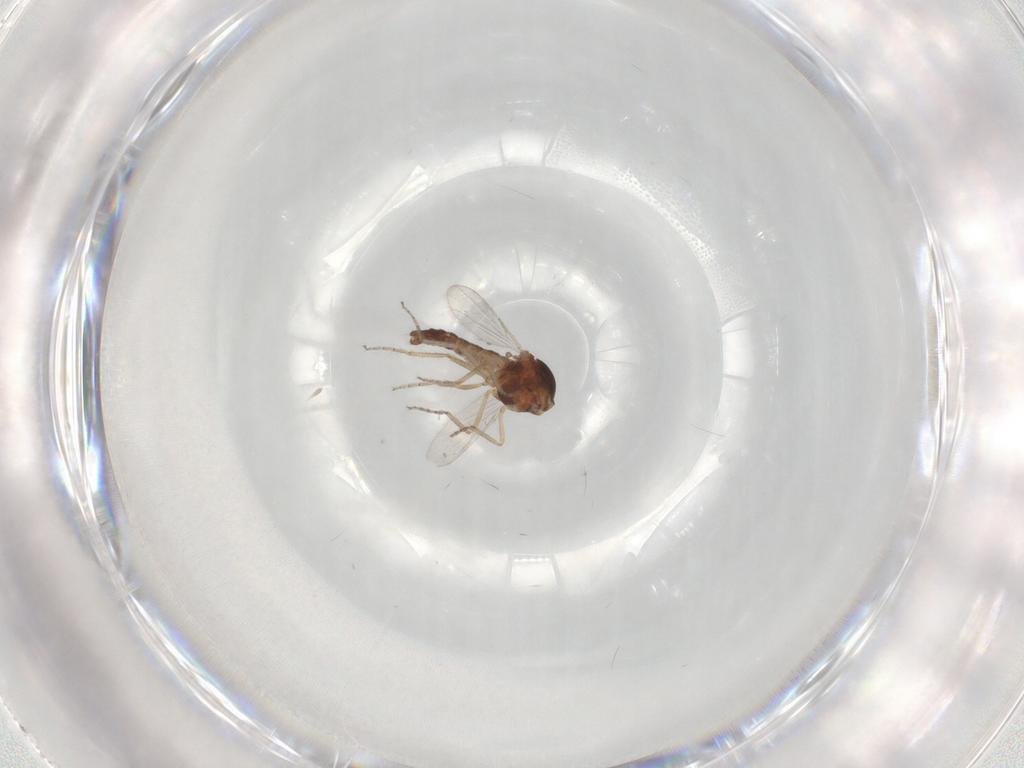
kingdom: Animalia
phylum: Arthropoda
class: Insecta
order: Diptera
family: Ceratopogonidae
